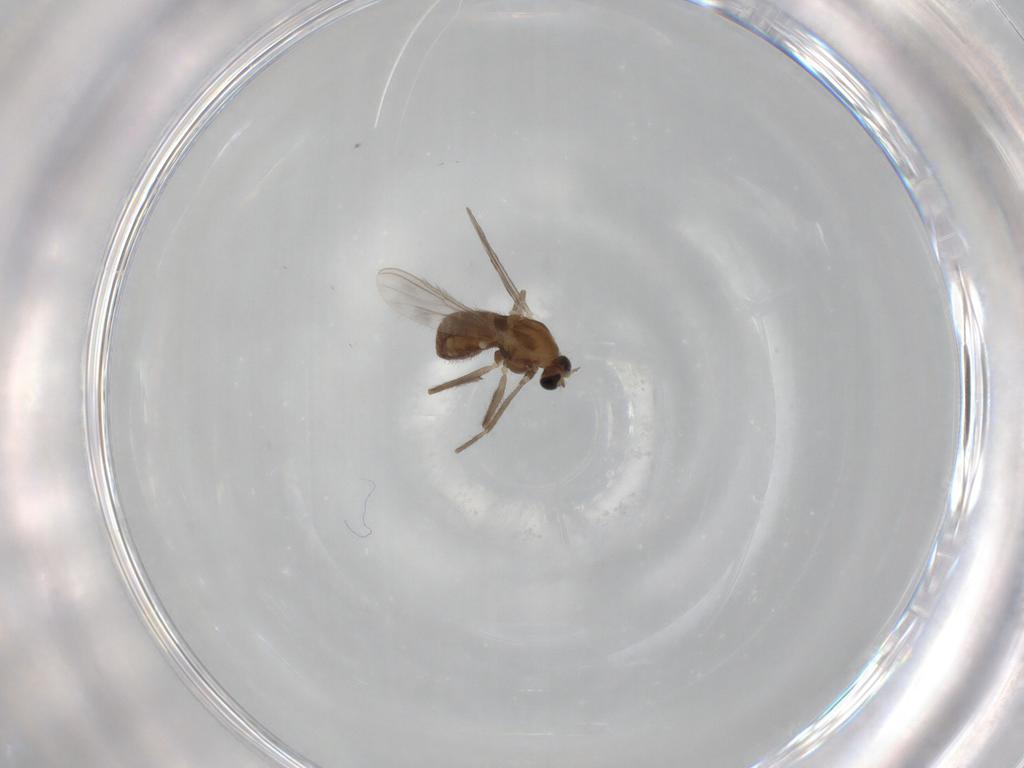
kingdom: Animalia
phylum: Arthropoda
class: Insecta
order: Diptera
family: Chironomidae
